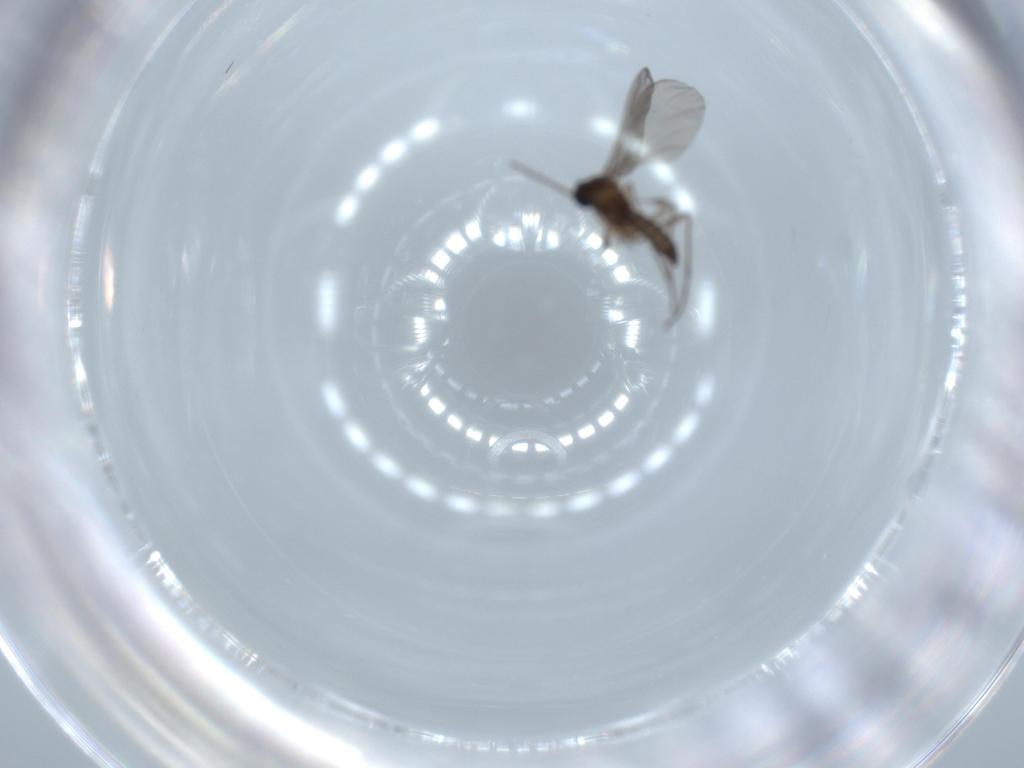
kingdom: Animalia
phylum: Arthropoda
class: Insecta
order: Diptera
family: Sciaridae
